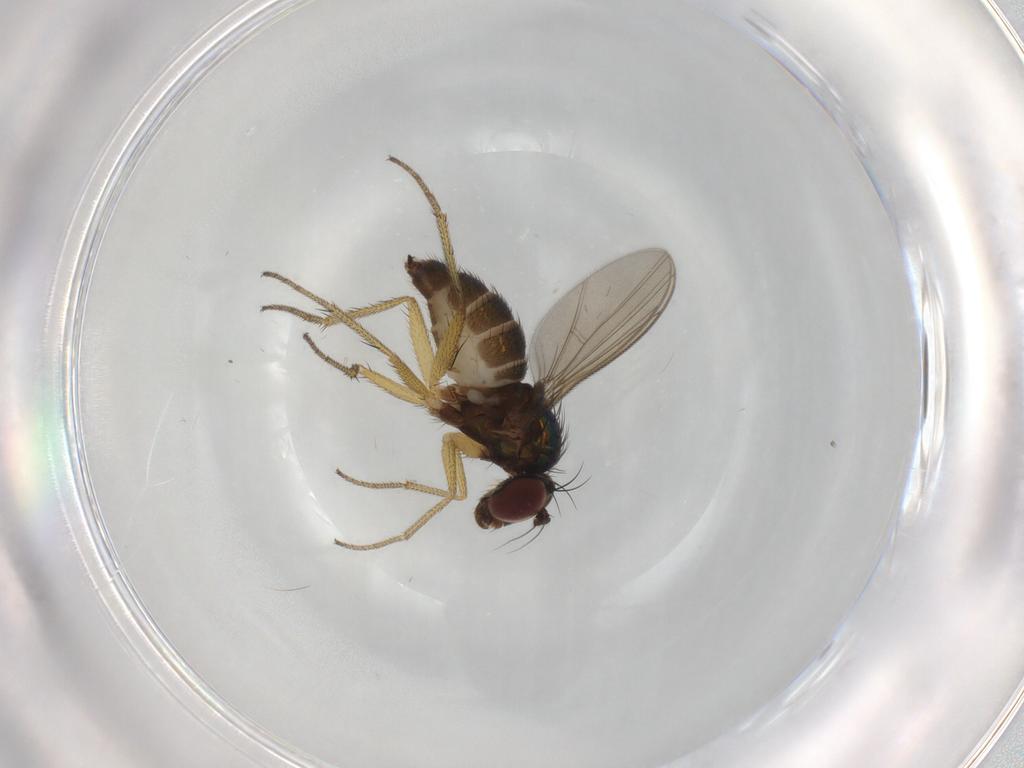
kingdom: Animalia
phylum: Arthropoda
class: Insecta
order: Diptera
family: Dolichopodidae
